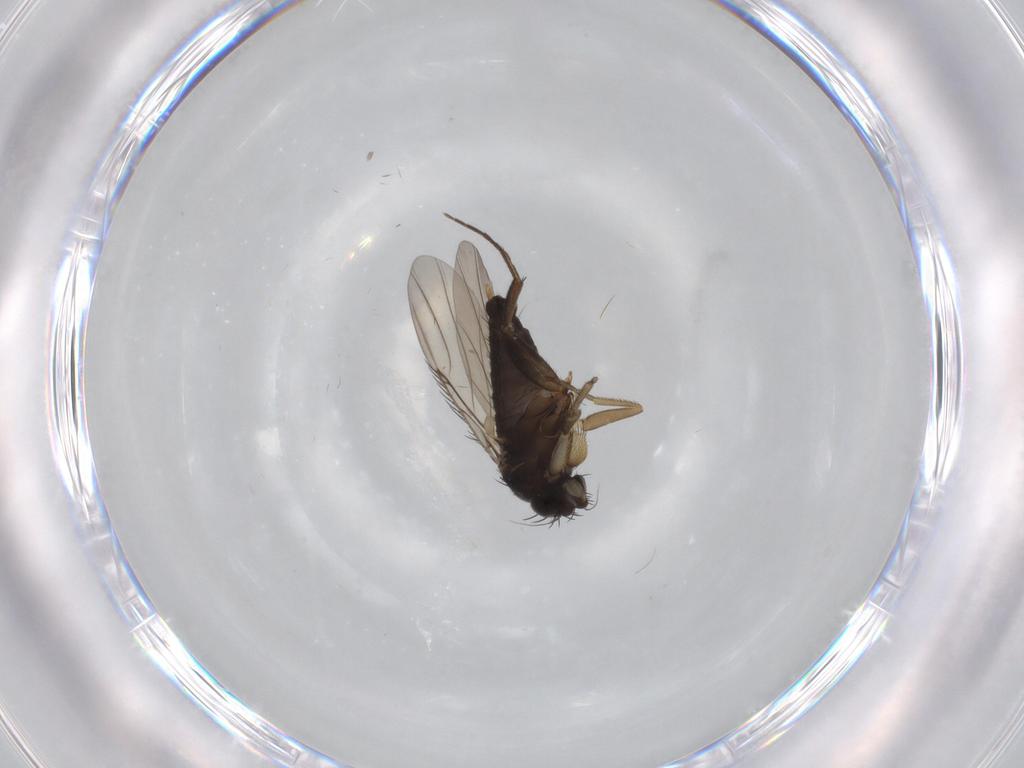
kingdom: Animalia
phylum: Arthropoda
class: Insecta
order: Diptera
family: Phoridae
